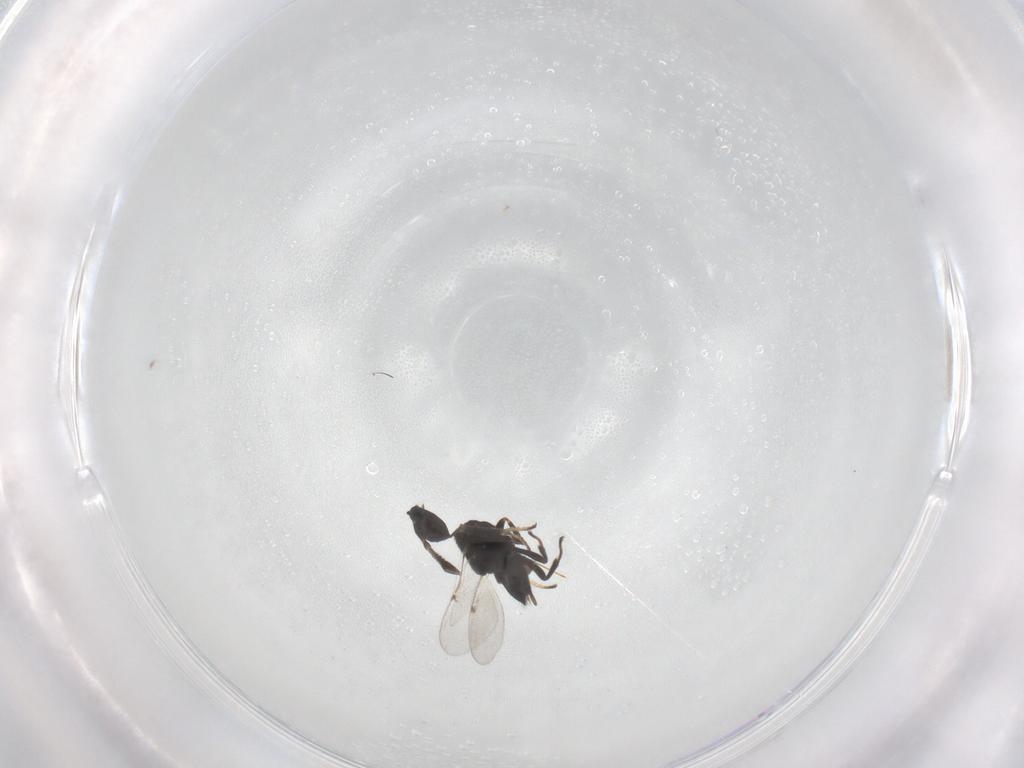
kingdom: Animalia
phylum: Arthropoda
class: Insecta
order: Hymenoptera
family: Encyrtidae
